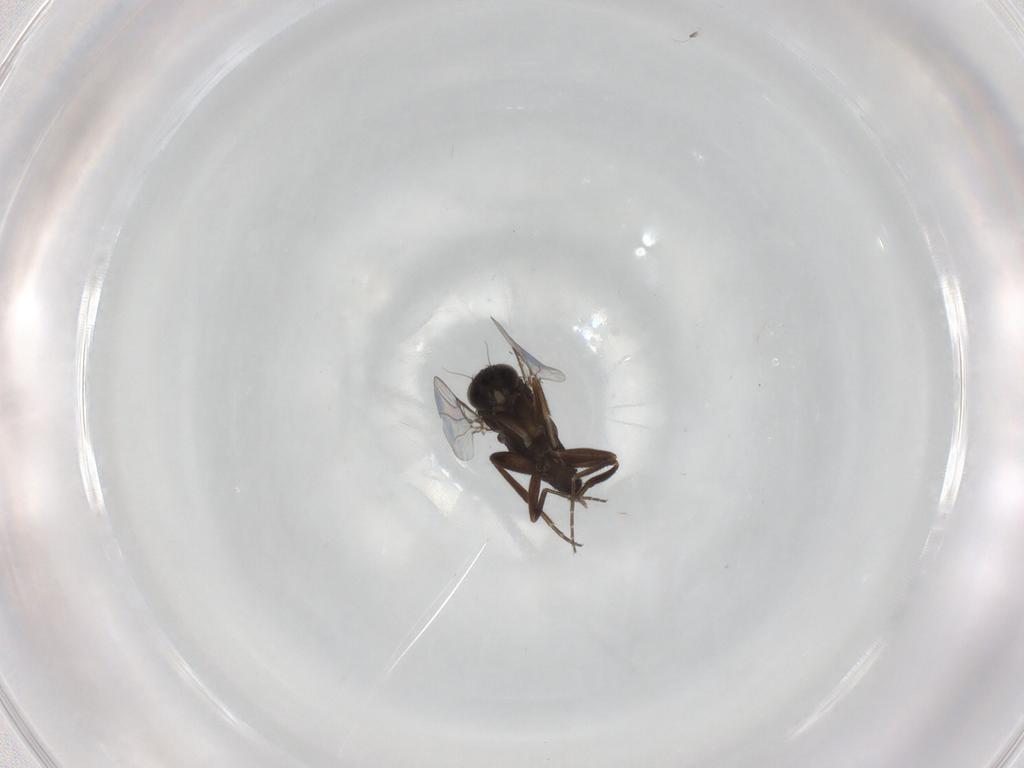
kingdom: Animalia
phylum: Arthropoda
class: Insecta
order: Diptera
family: Phoridae
